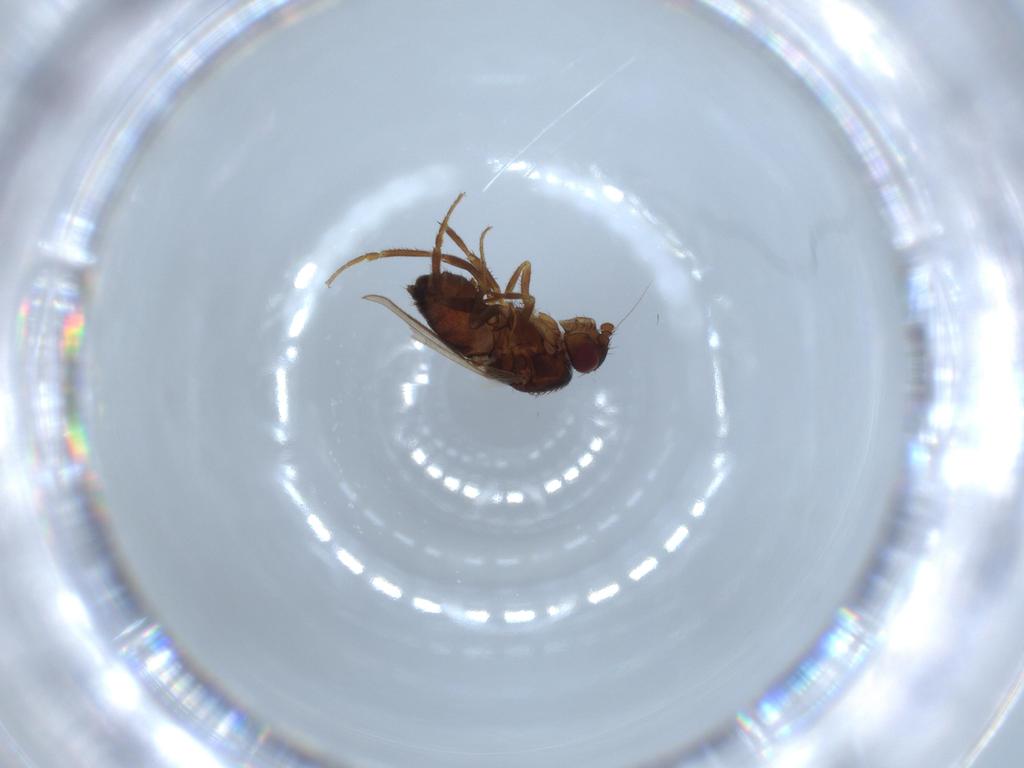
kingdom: Animalia
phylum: Arthropoda
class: Insecta
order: Diptera
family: Sphaeroceridae
